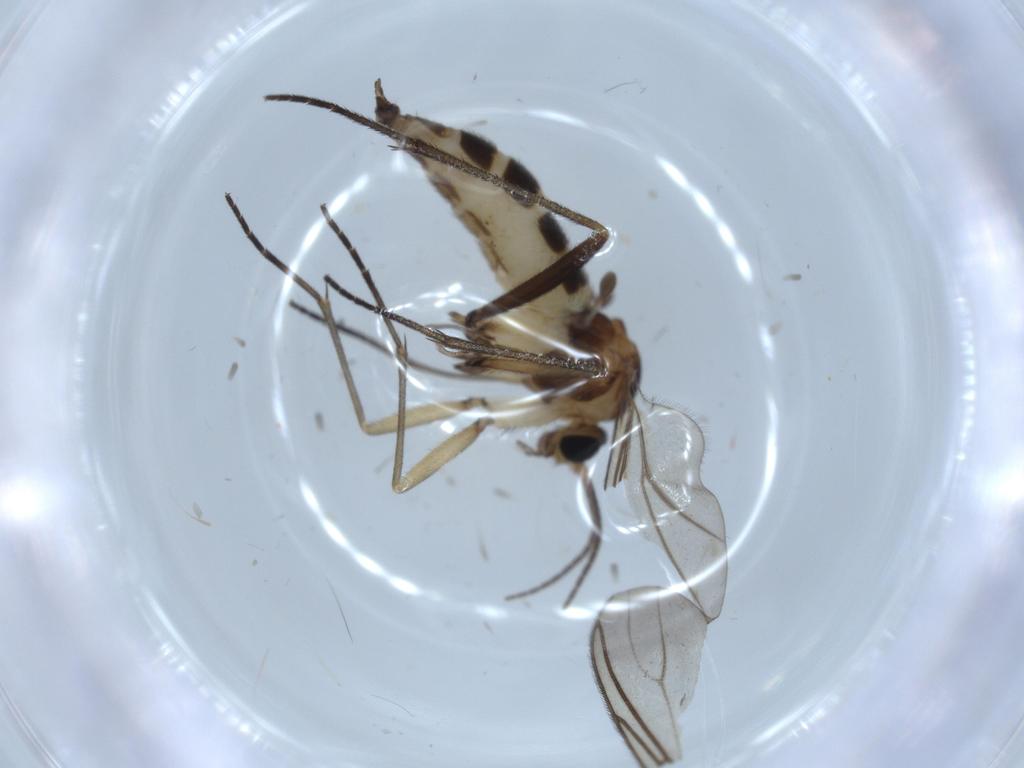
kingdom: Animalia
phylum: Arthropoda
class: Insecta
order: Diptera
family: Sciaridae
